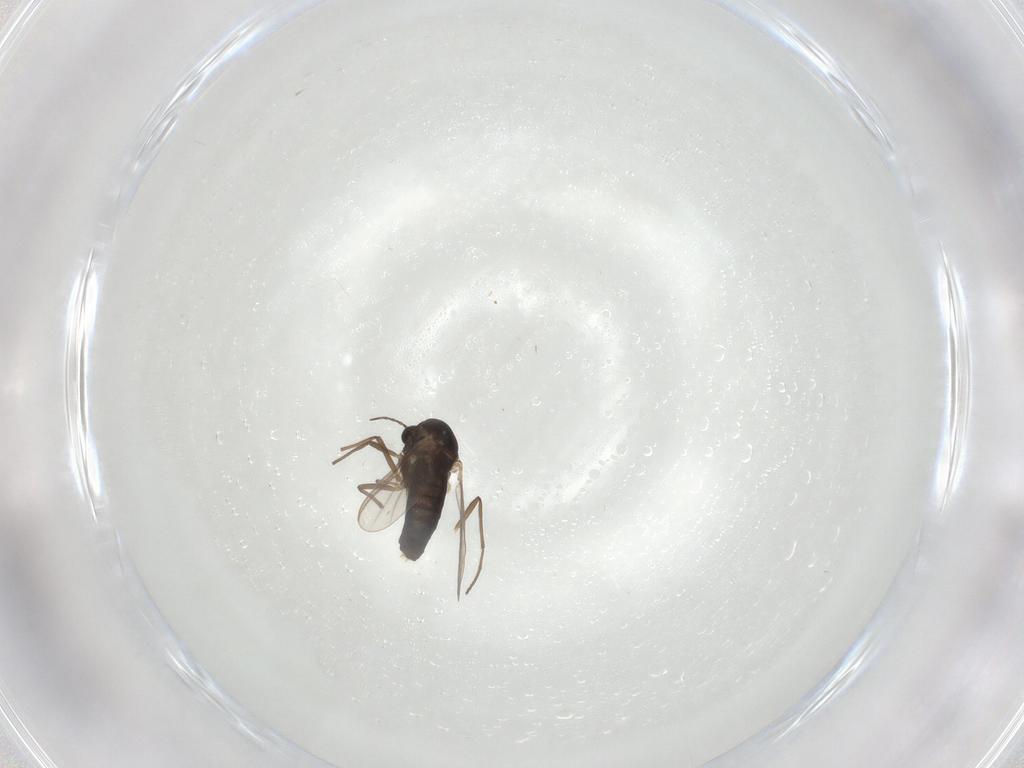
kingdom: Animalia
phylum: Arthropoda
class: Insecta
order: Diptera
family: Chironomidae
